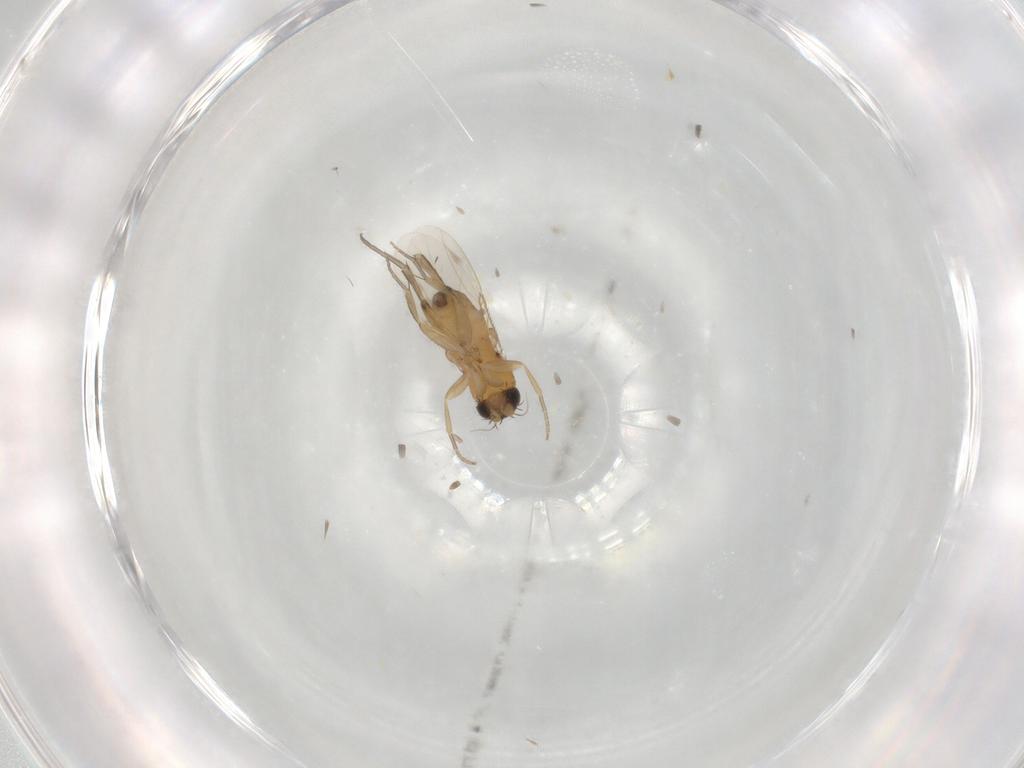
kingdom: Animalia
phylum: Arthropoda
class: Insecta
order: Diptera
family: Phoridae
